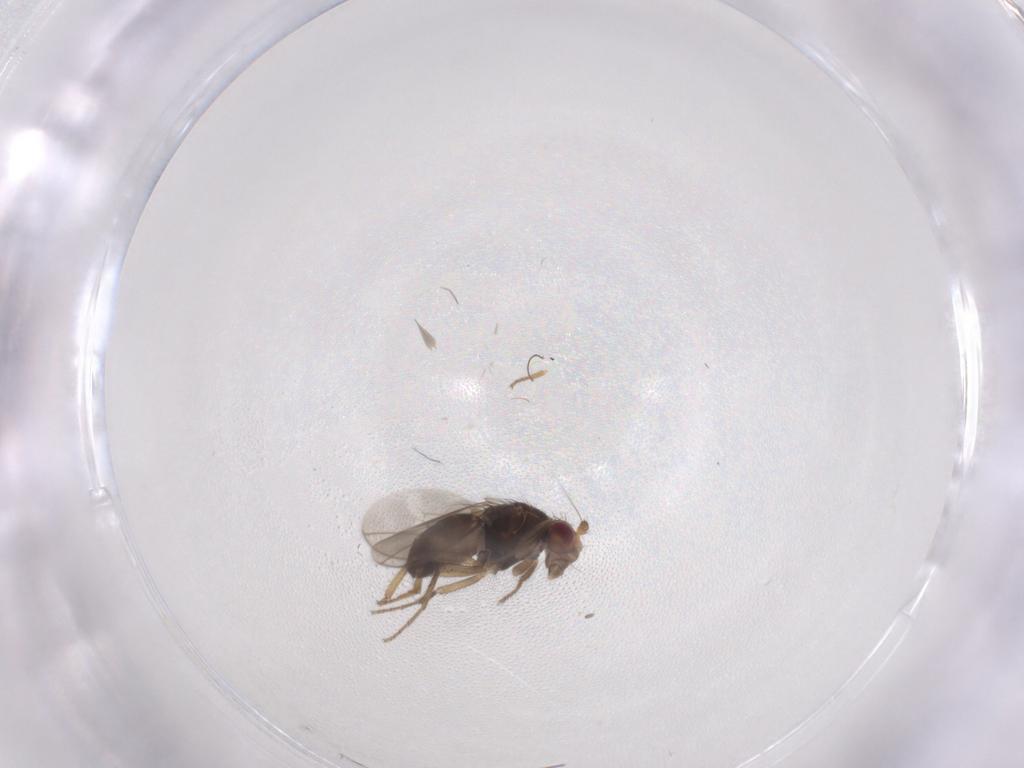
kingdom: Animalia
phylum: Arthropoda
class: Insecta
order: Diptera
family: Sphaeroceridae
